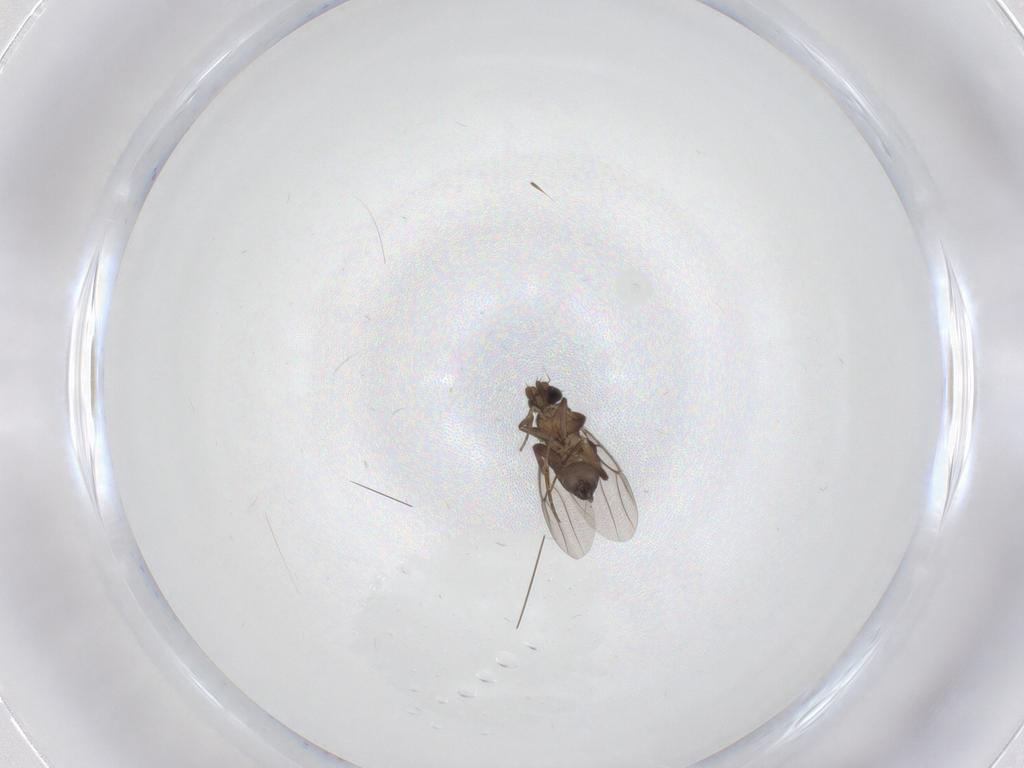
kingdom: Animalia
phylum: Arthropoda
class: Insecta
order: Diptera
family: Phoridae
